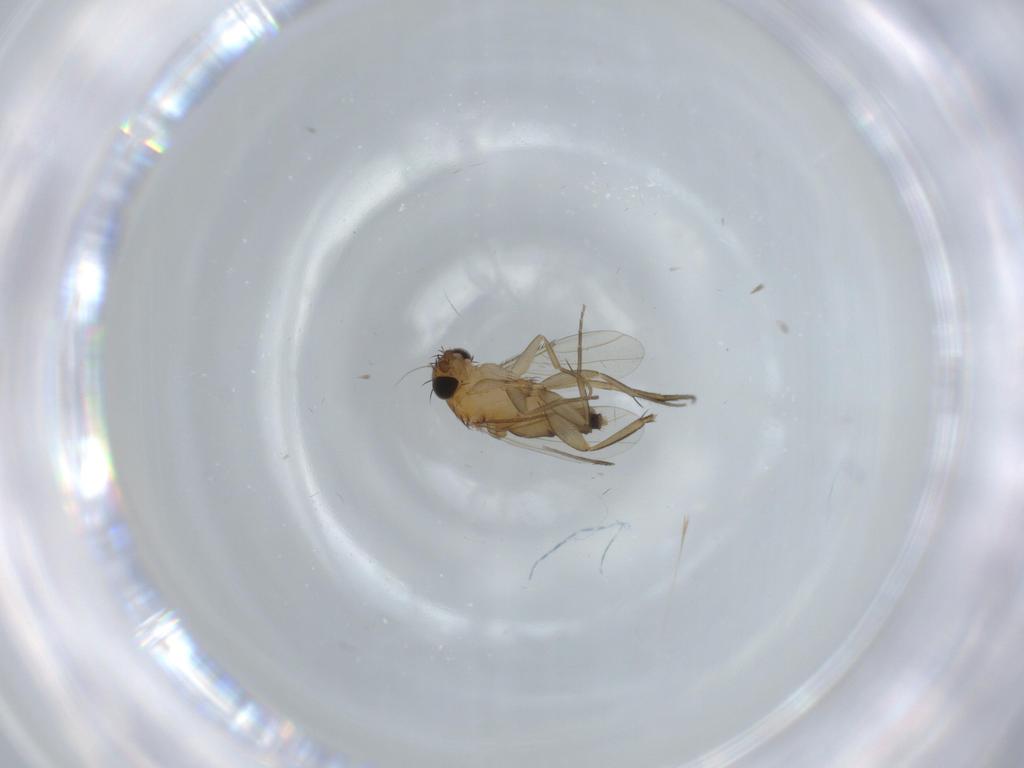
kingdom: Animalia
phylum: Arthropoda
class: Insecta
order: Diptera
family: Phoridae
